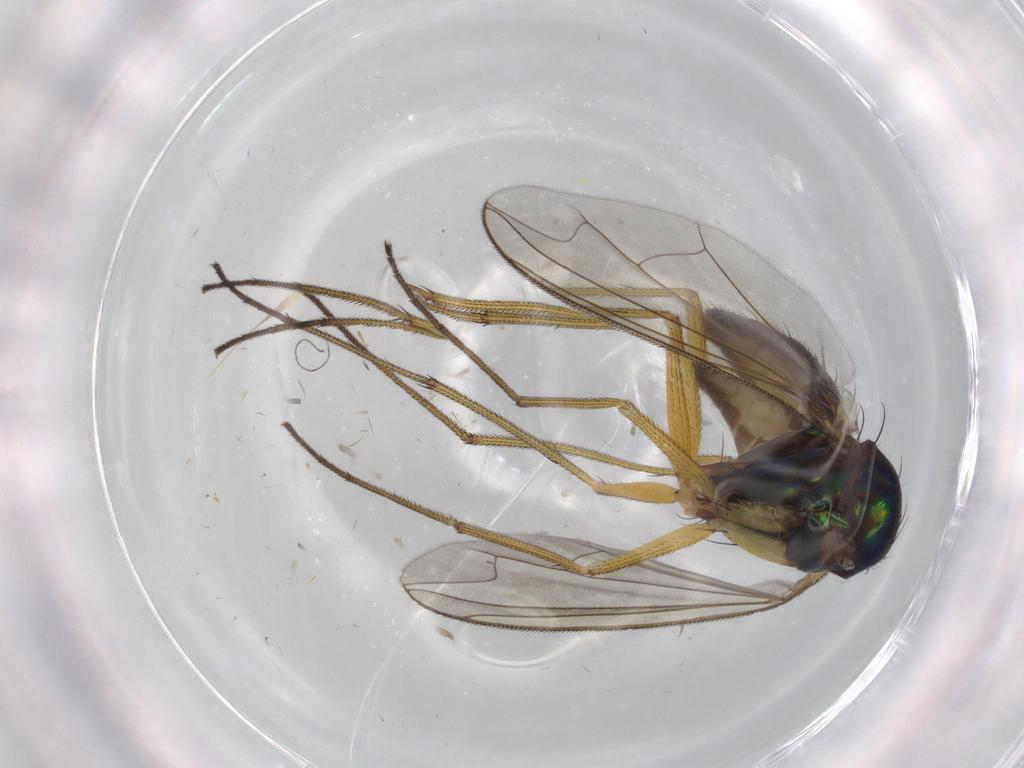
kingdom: Animalia
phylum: Arthropoda
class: Insecta
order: Diptera
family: Dolichopodidae
